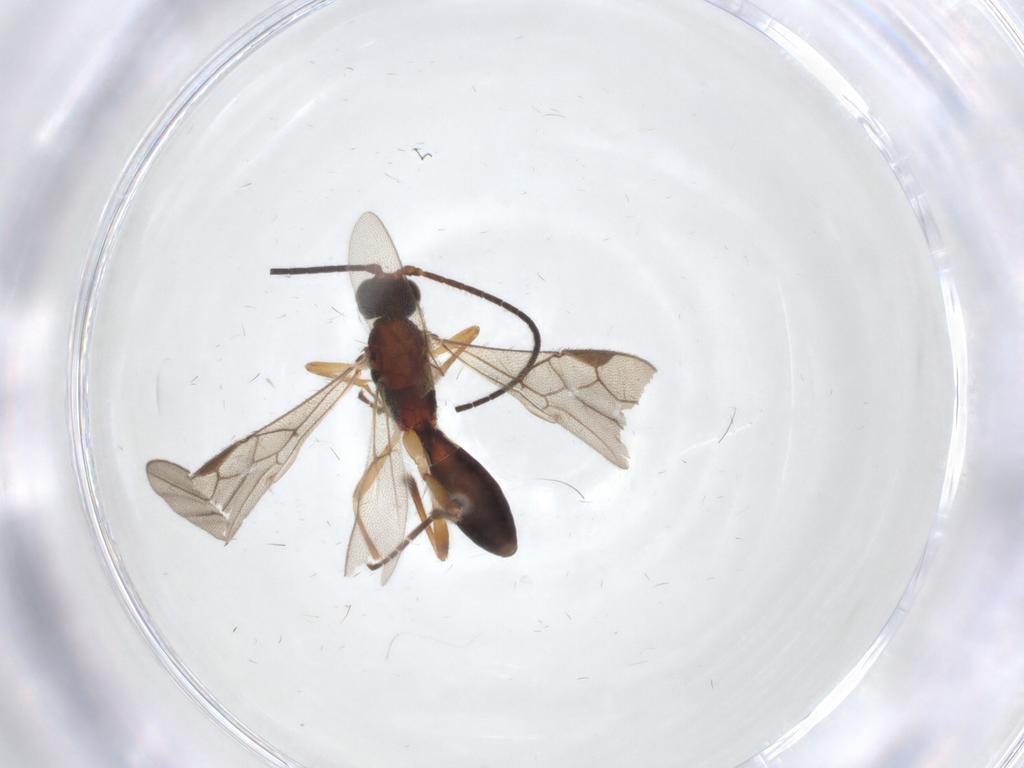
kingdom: Animalia
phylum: Arthropoda
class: Insecta
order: Hymenoptera
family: Braconidae
